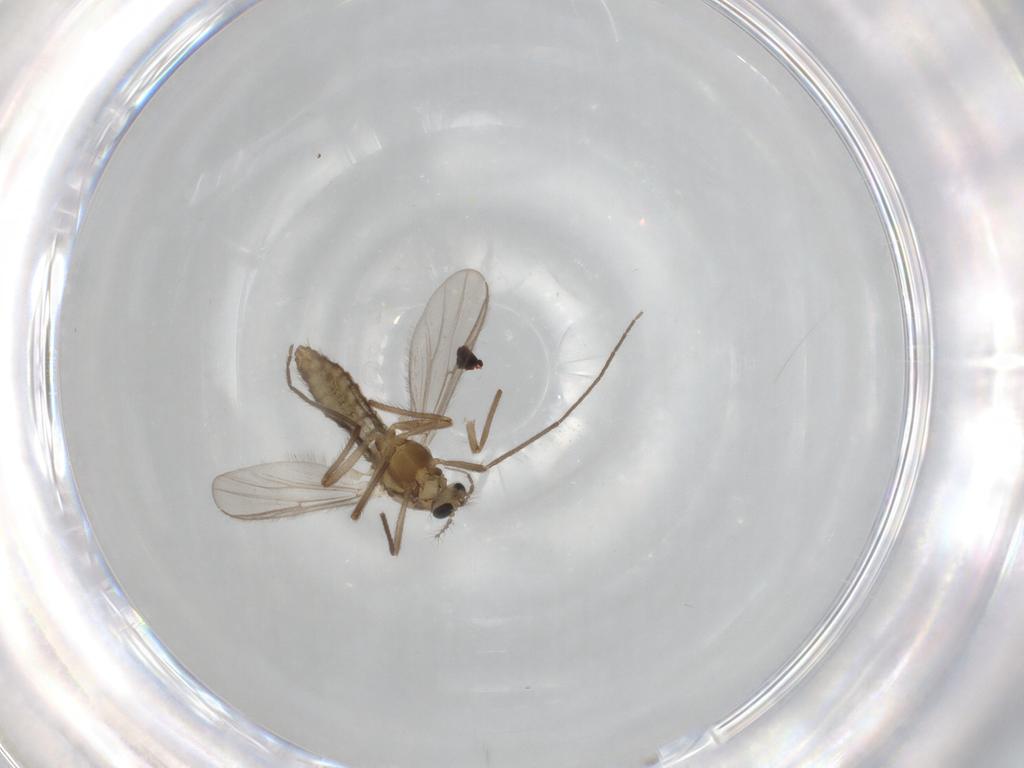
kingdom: Animalia
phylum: Arthropoda
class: Insecta
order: Diptera
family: Chironomidae
